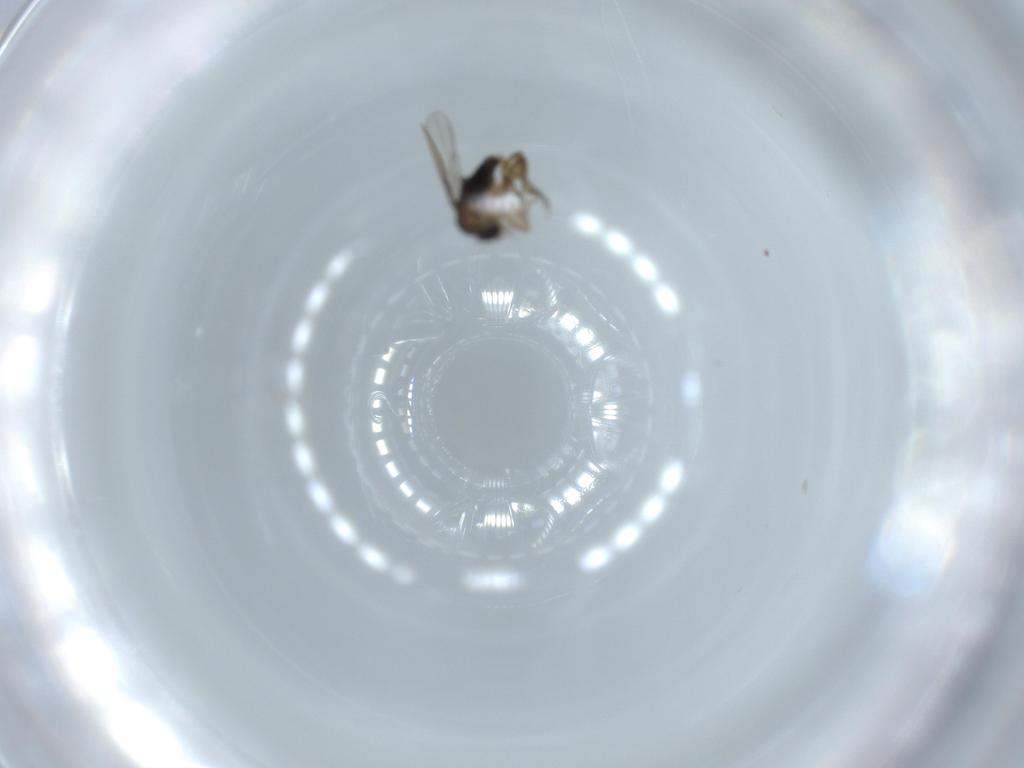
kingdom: Animalia
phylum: Arthropoda
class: Insecta
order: Diptera
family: Phoridae
